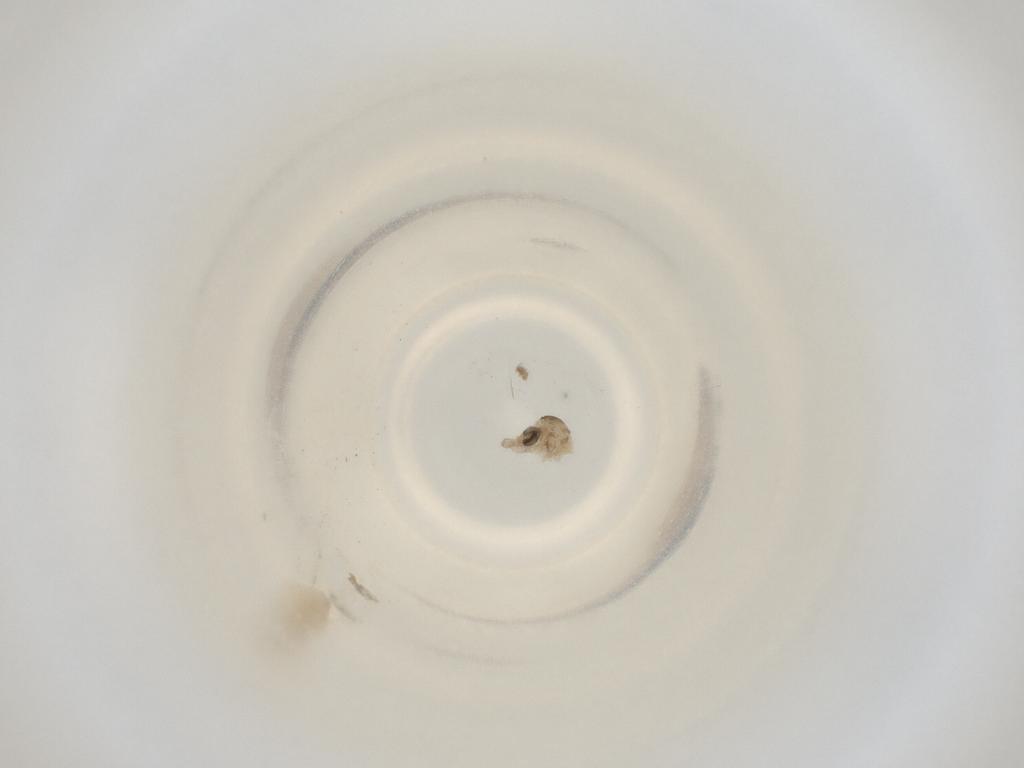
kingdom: Animalia
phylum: Arthropoda
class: Insecta
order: Diptera
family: Cecidomyiidae
